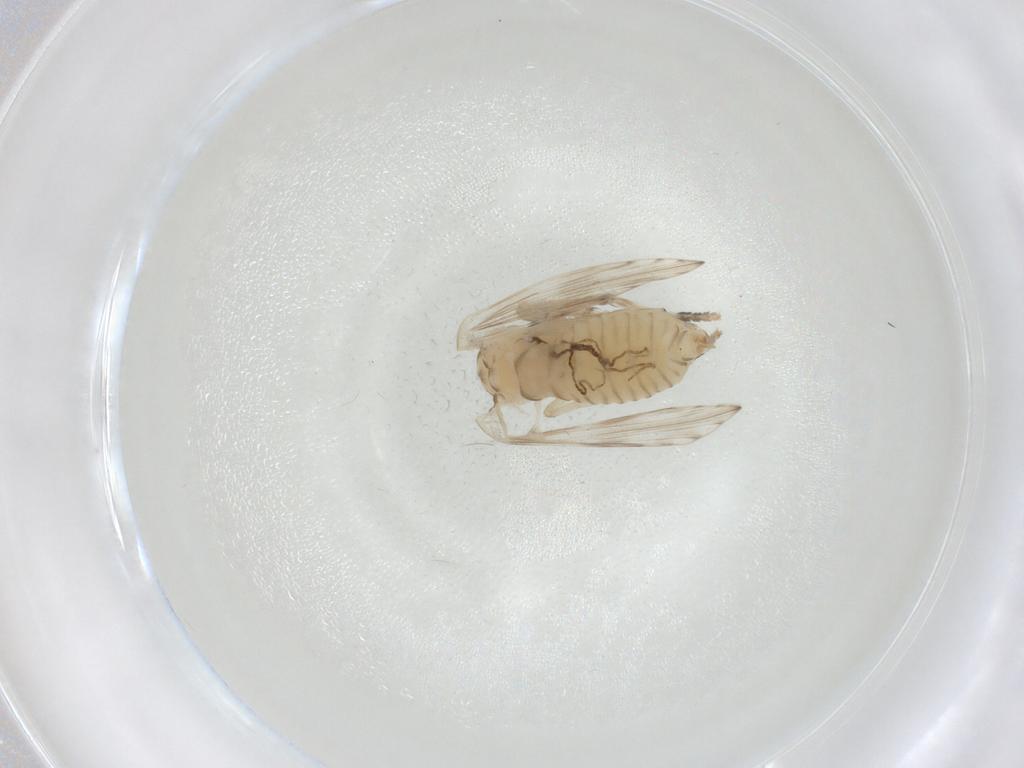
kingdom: Animalia
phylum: Arthropoda
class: Insecta
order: Diptera
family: Psychodidae
